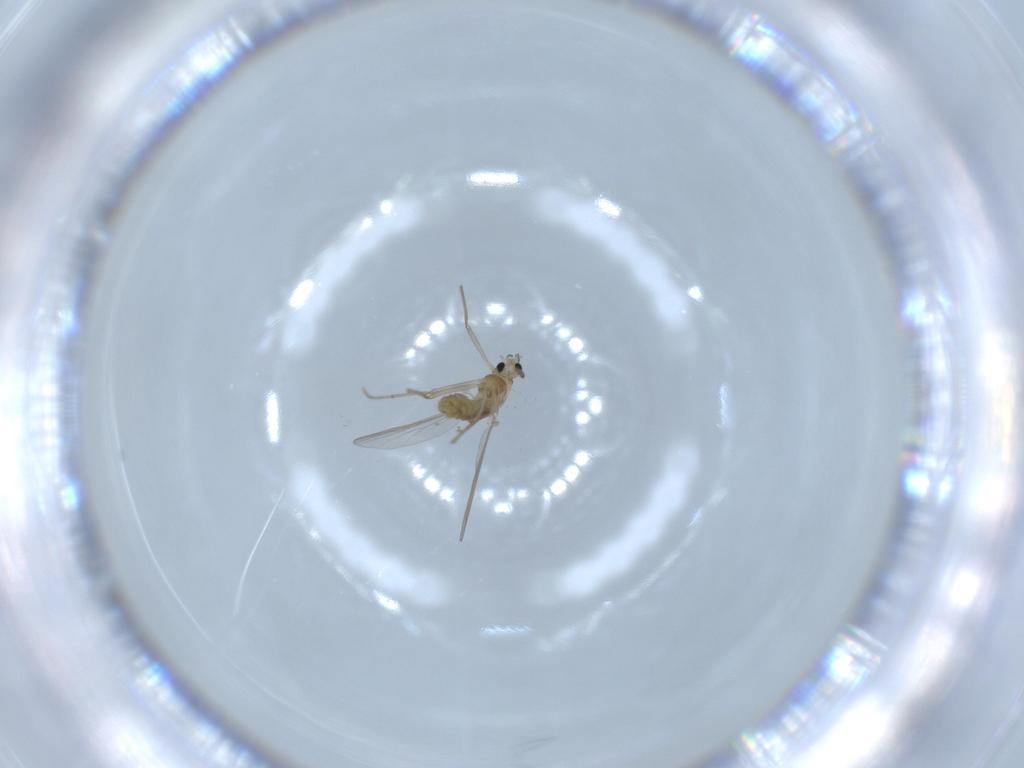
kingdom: Animalia
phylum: Arthropoda
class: Insecta
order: Diptera
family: Chironomidae
